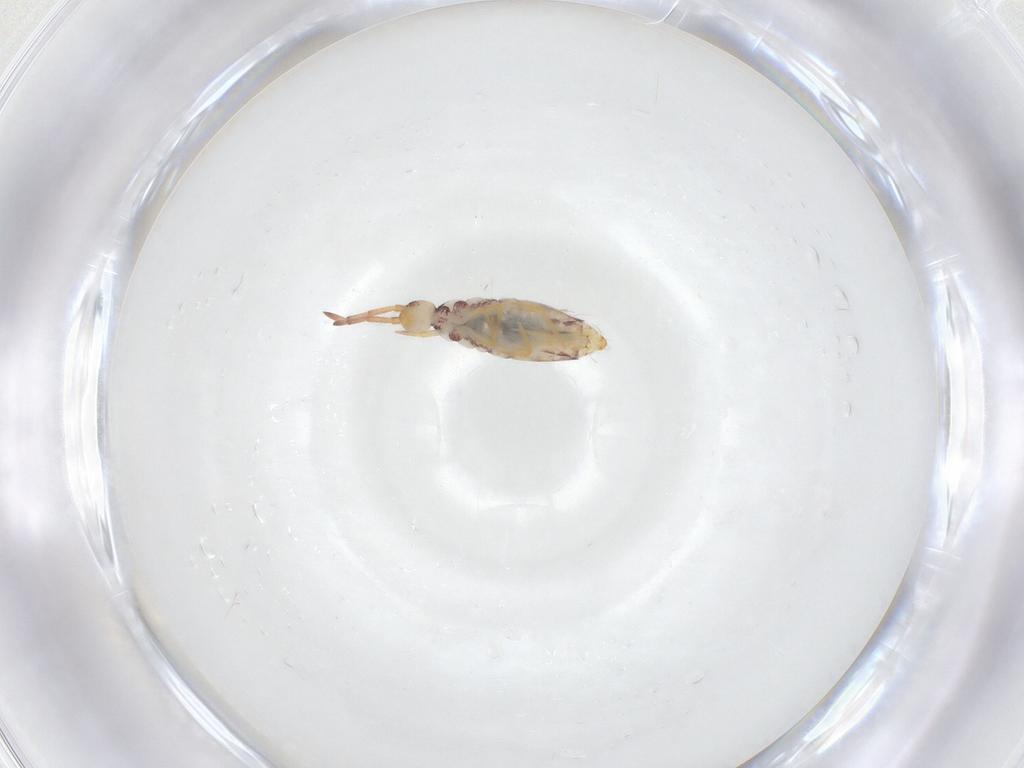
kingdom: Animalia
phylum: Arthropoda
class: Collembola
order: Entomobryomorpha
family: Entomobryidae
